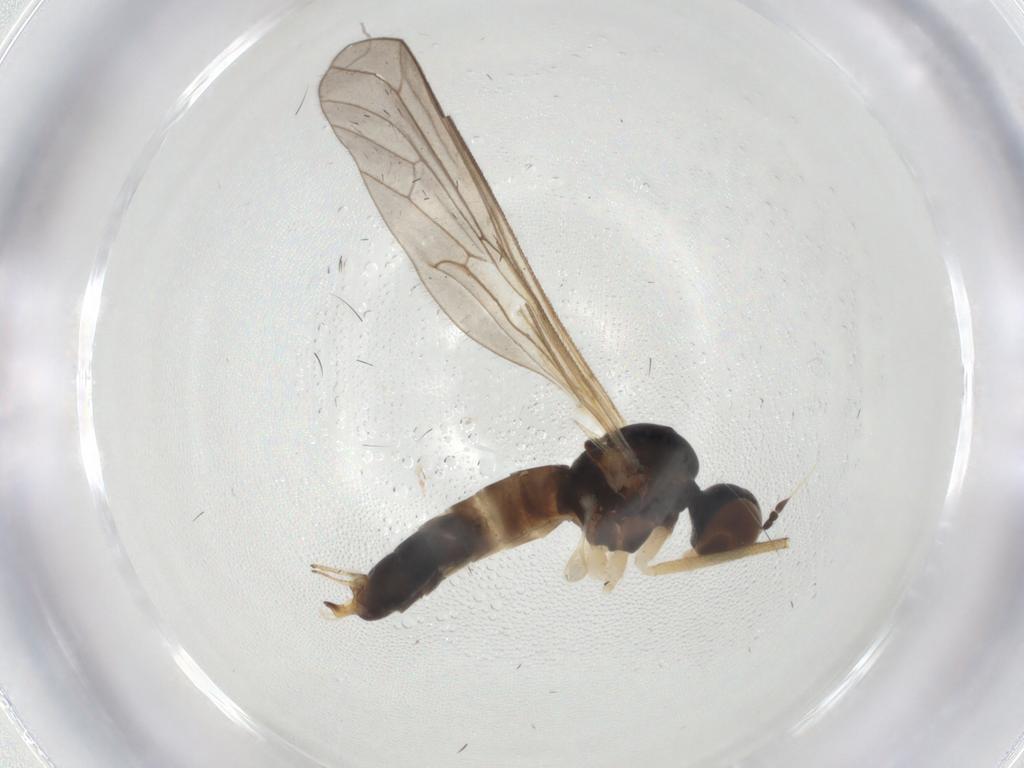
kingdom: Animalia
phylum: Arthropoda
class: Insecta
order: Diptera
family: Brachystomatidae
